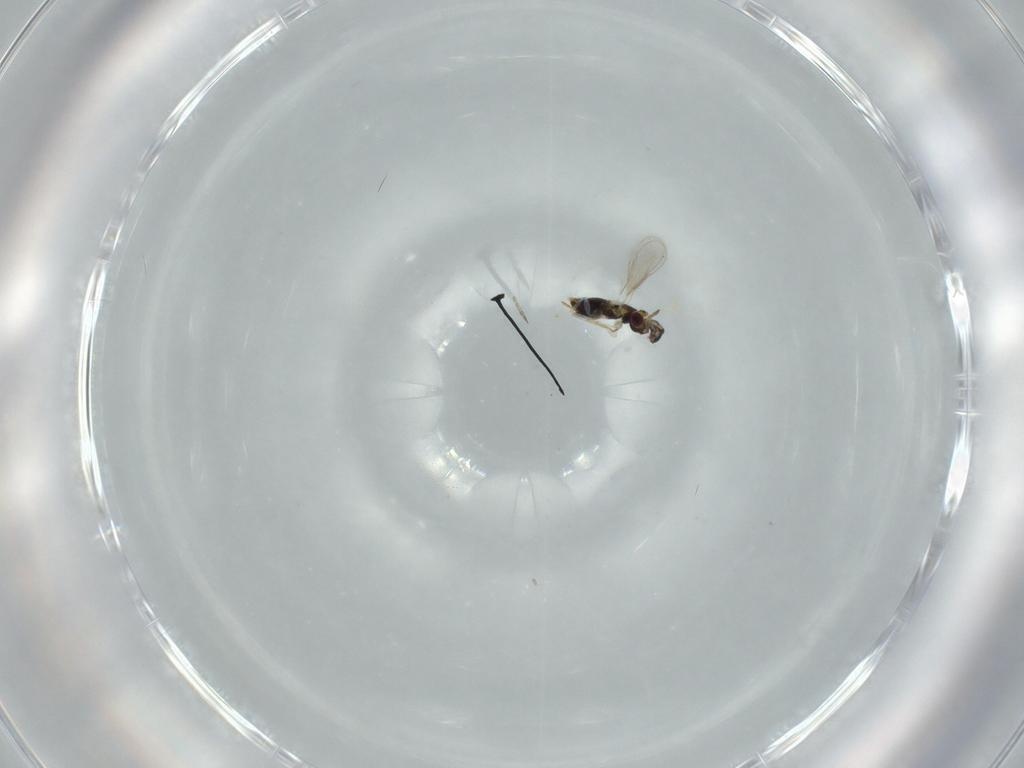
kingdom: Animalia
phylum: Arthropoda
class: Insecta
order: Hymenoptera
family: Aphelinidae
